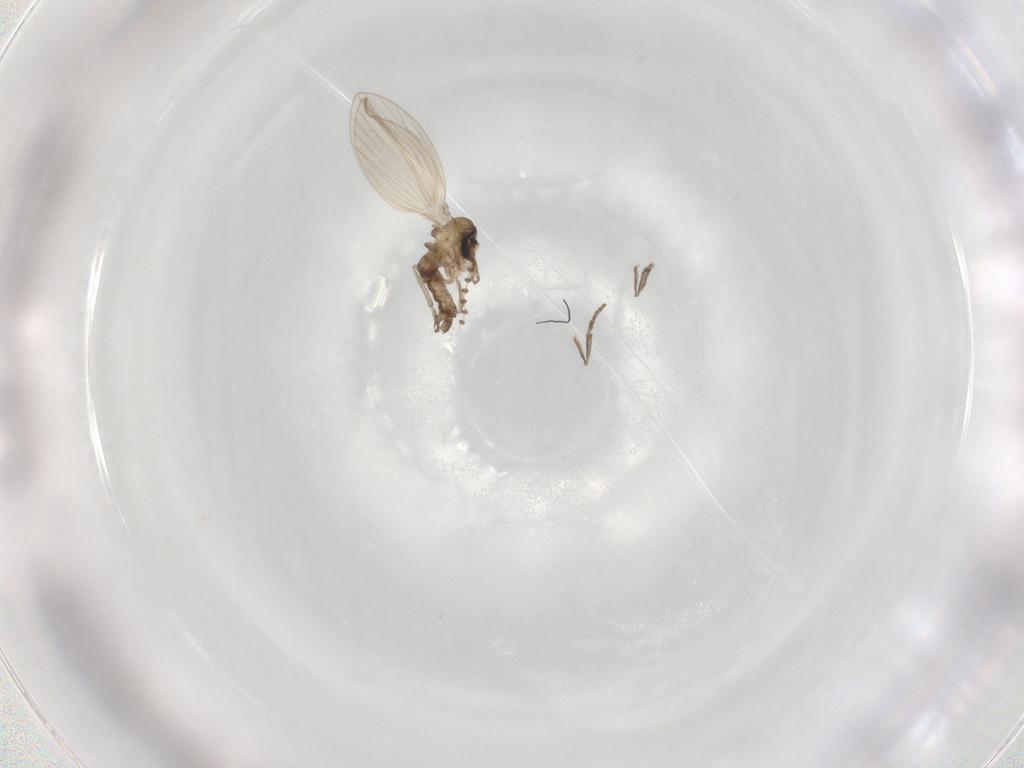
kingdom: Animalia
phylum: Arthropoda
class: Insecta
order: Diptera
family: Psychodidae
